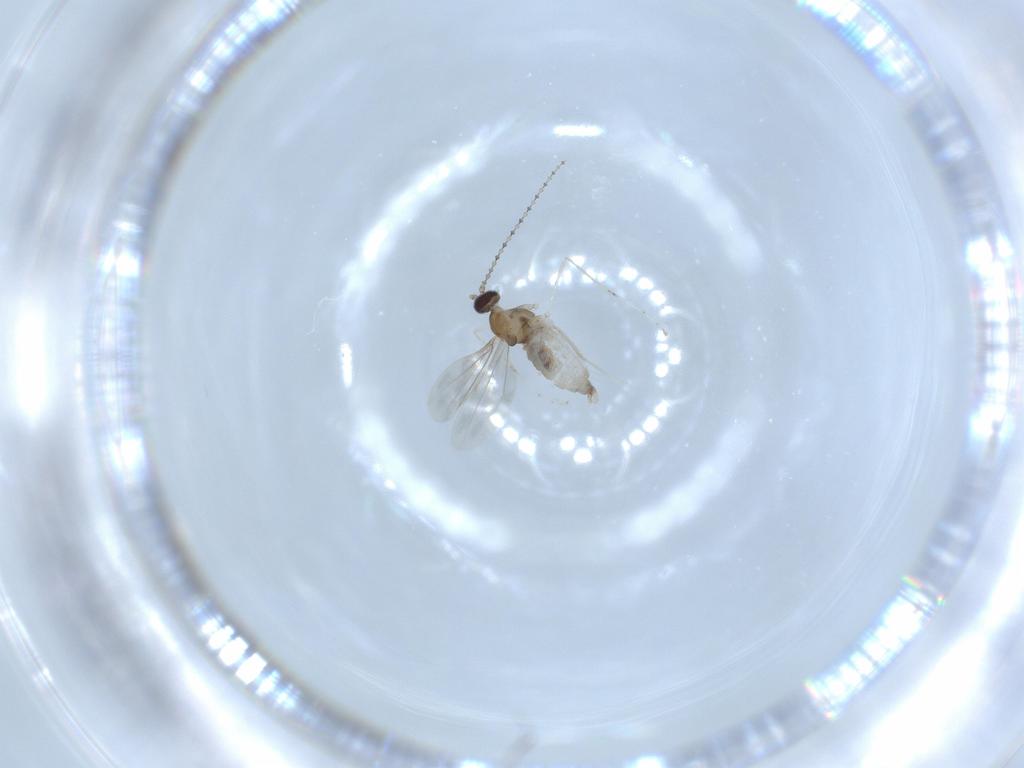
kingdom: Animalia
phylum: Arthropoda
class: Insecta
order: Diptera
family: Cecidomyiidae
